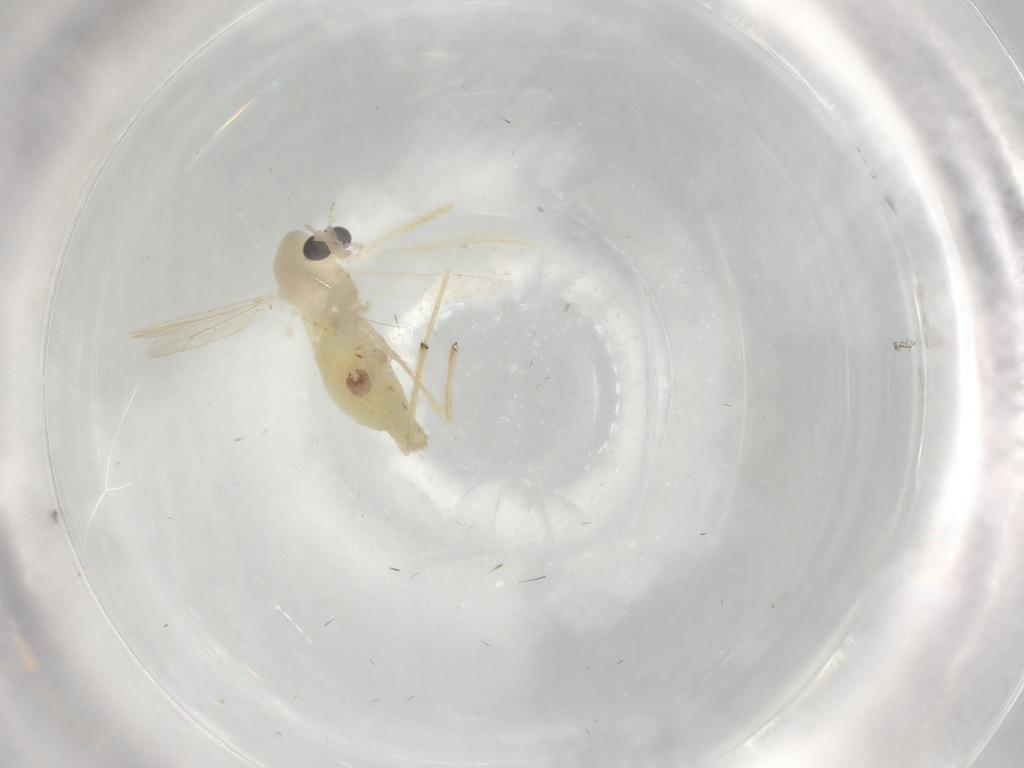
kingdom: Animalia
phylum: Arthropoda
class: Insecta
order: Diptera
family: Chironomidae
